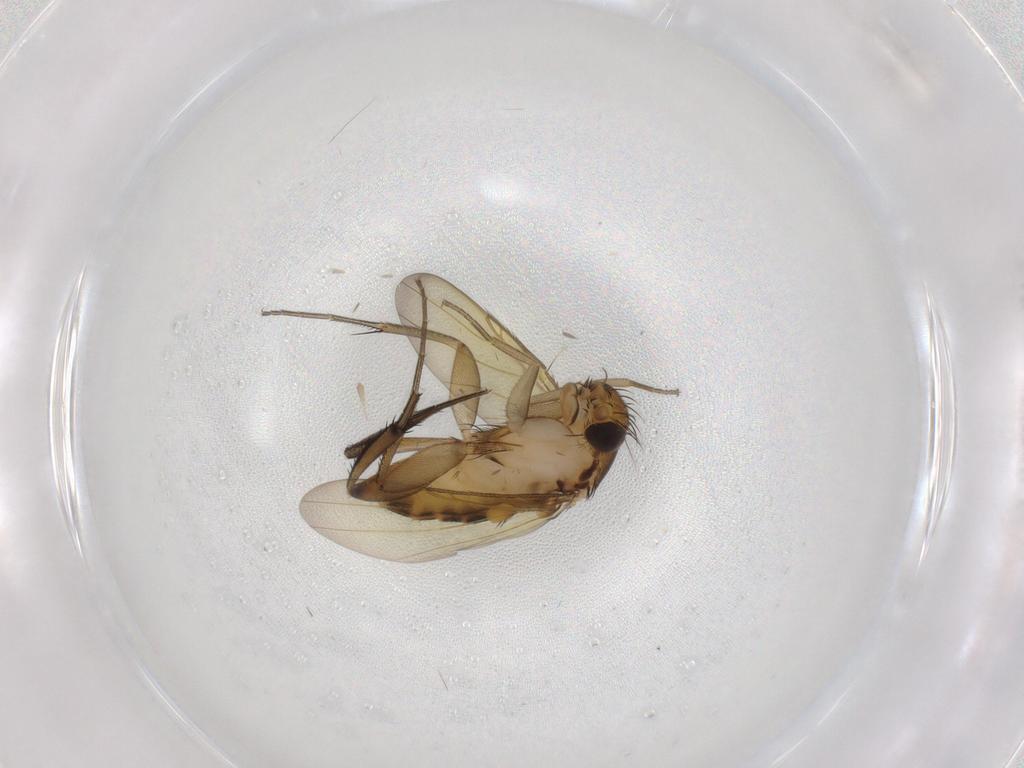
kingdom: Animalia
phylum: Arthropoda
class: Insecta
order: Diptera
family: Phoridae
